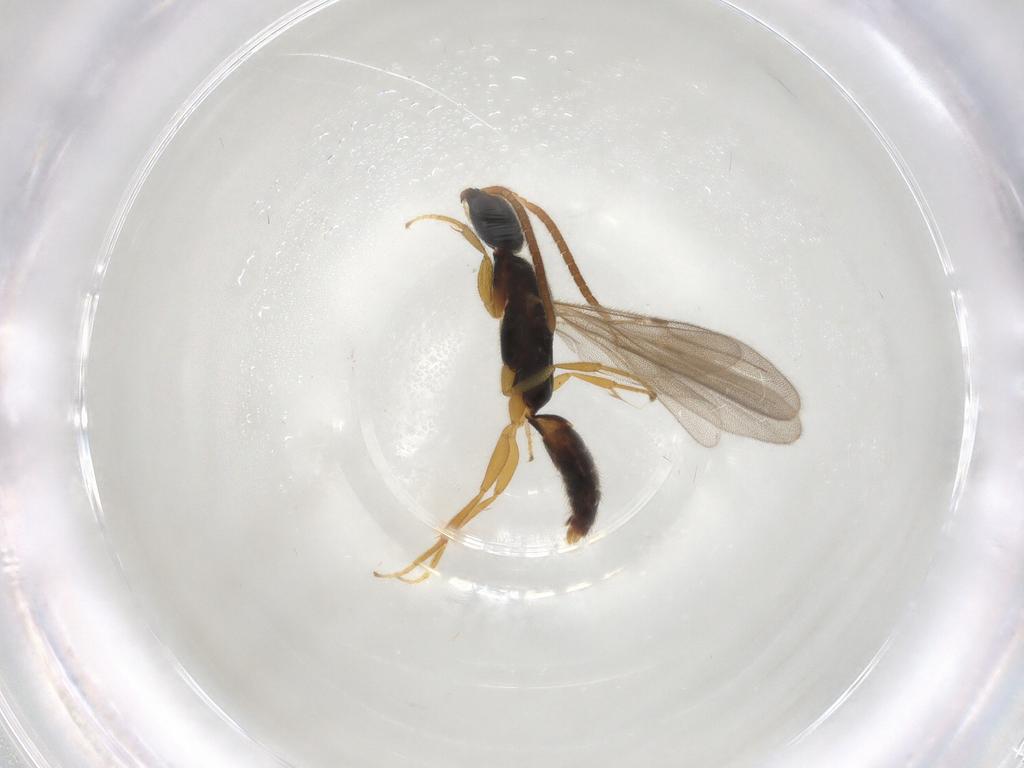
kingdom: Animalia
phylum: Arthropoda
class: Insecta
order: Hymenoptera
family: Bethylidae
